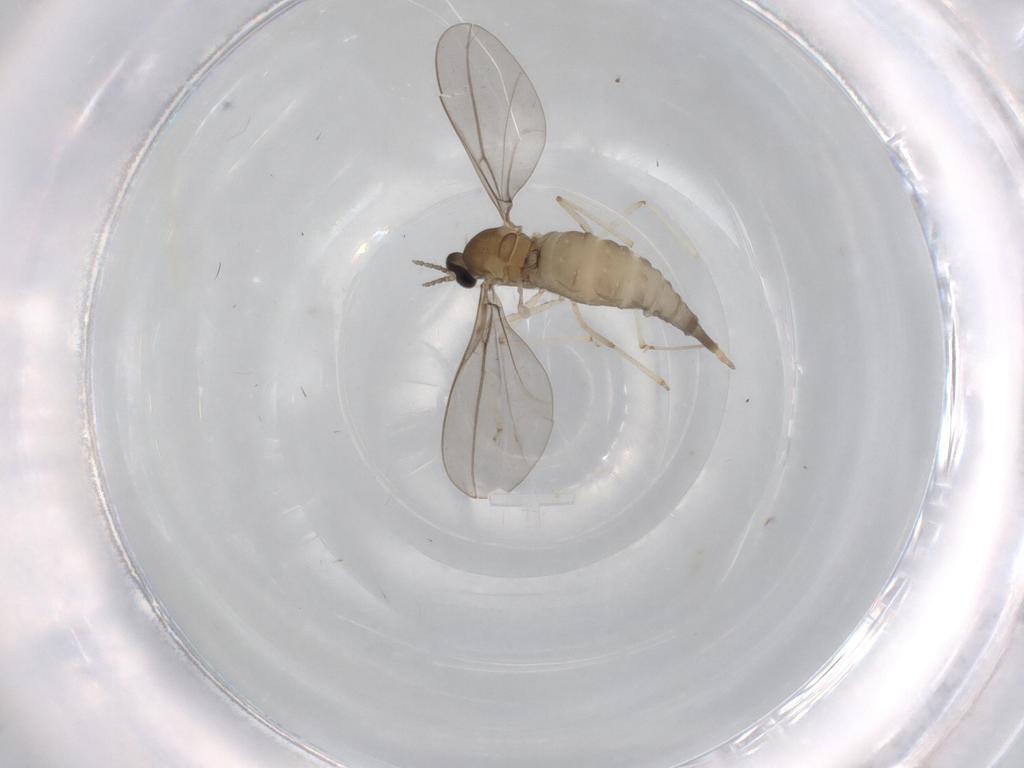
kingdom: Animalia
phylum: Arthropoda
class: Insecta
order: Diptera
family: Cecidomyiidae
